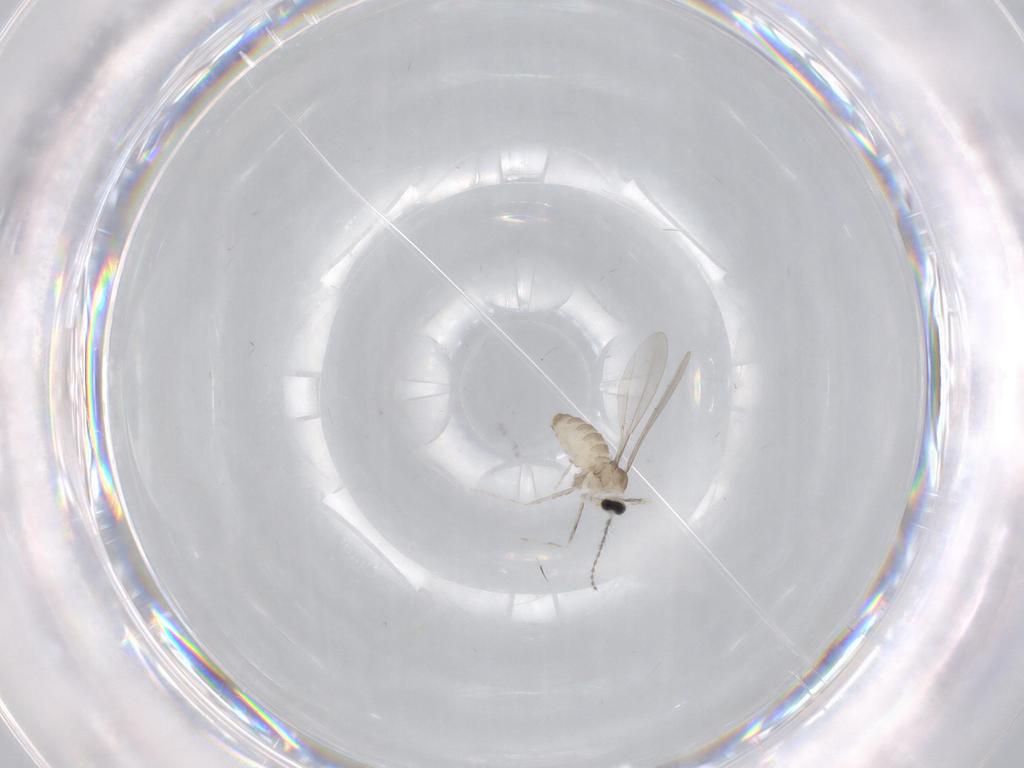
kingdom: Animalia
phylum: Arthropoda
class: Insecta
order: Diptera
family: Cecidomyiidae
